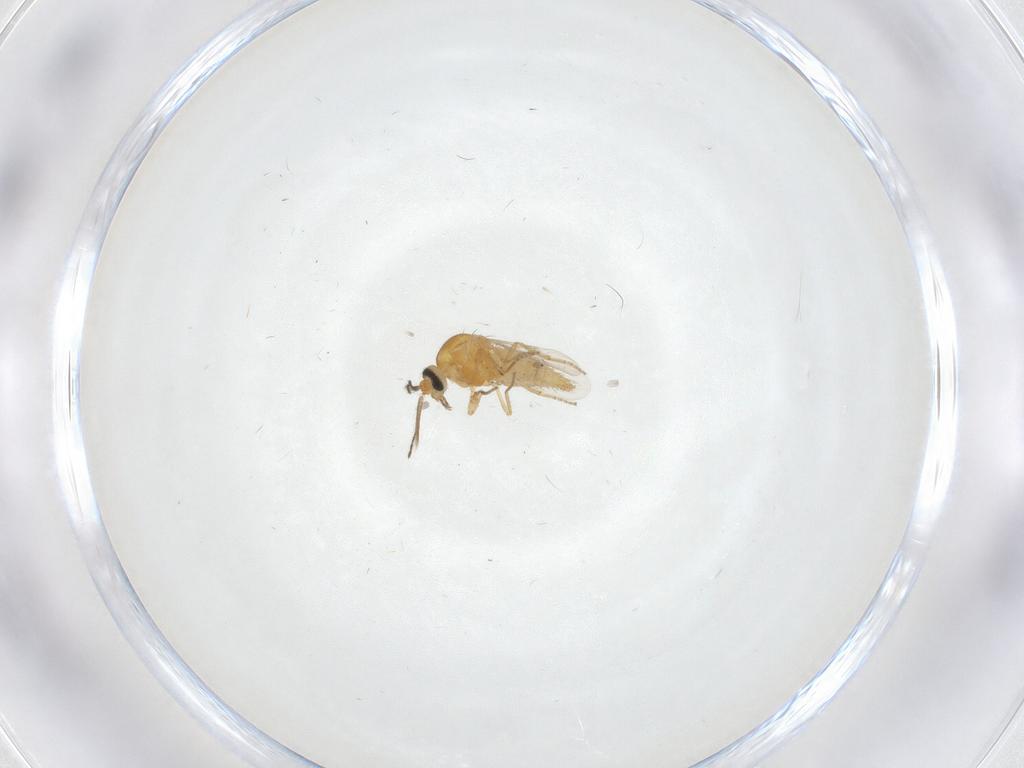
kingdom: Animalia
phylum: Arthropoda
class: Insecta
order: Diptera
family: Ceratopogonidae
